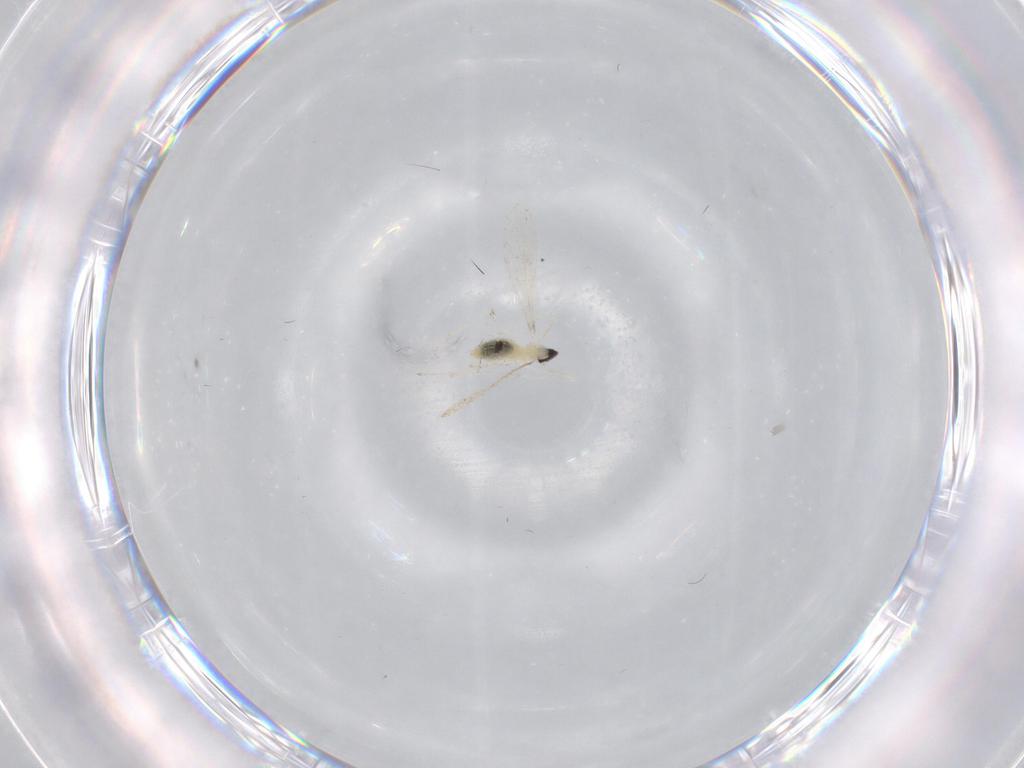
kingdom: Animalia
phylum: Arthropoda
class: Insecta
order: Diptera
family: Cecidomyiidae
